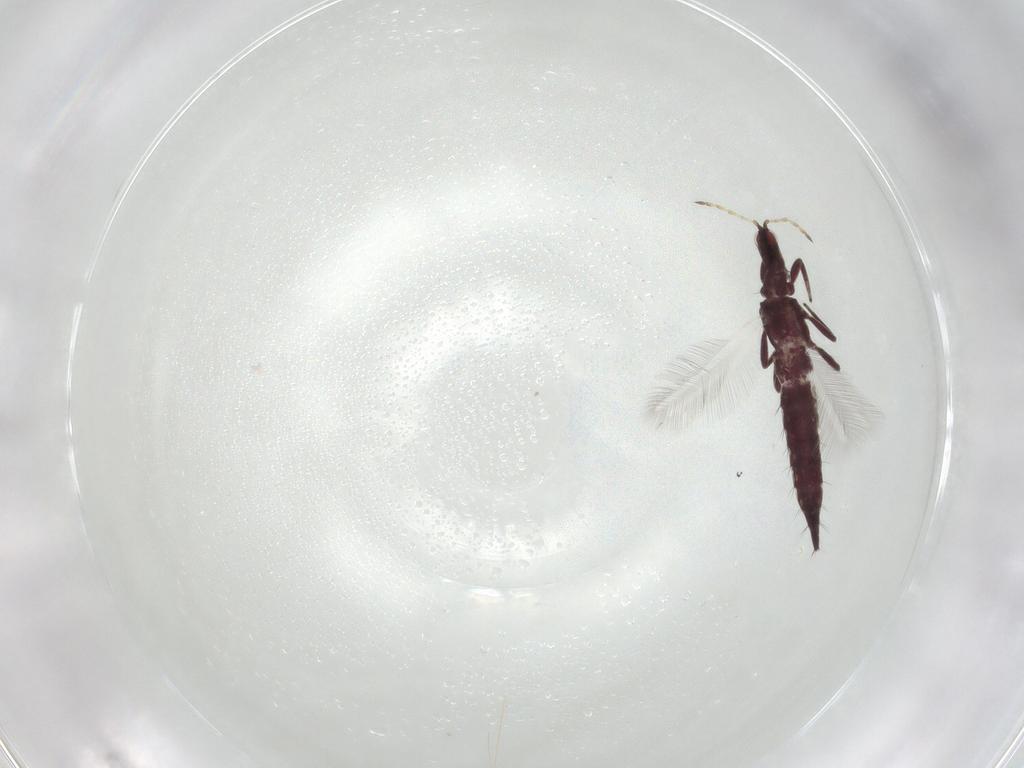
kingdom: Animalia
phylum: Arthropoda
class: Insecta
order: Thysanoptera
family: Phlaeothripidae
